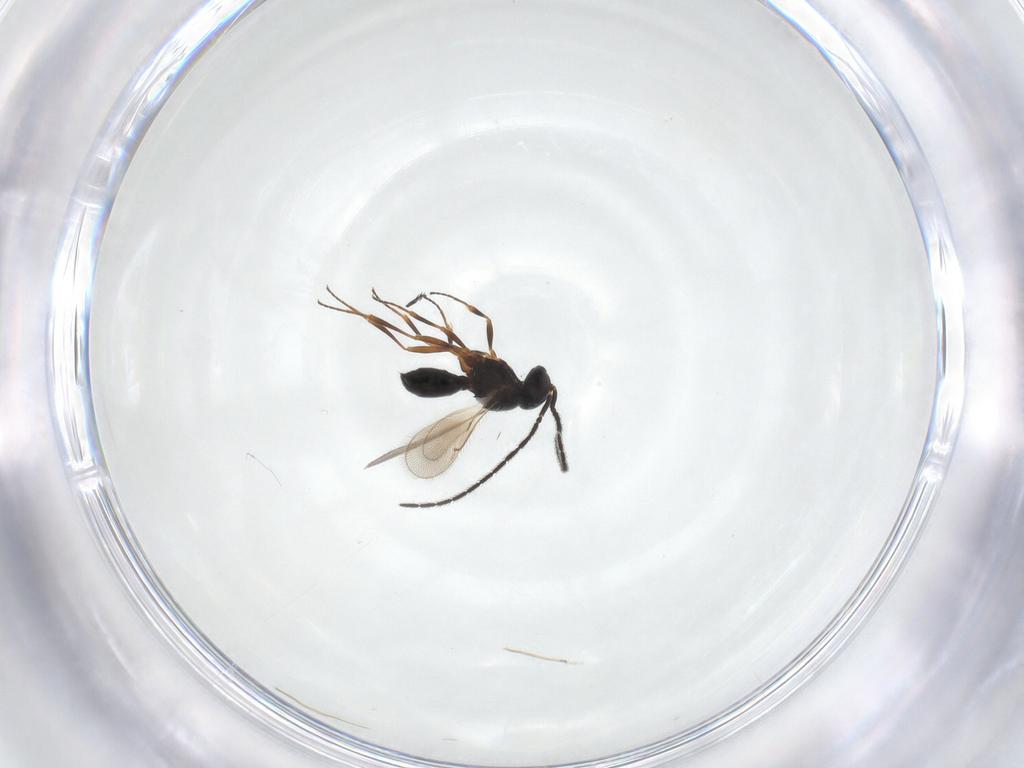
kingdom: Animalia
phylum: Arthropoda
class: Insecta
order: Hymenoptera
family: Scelionidae
